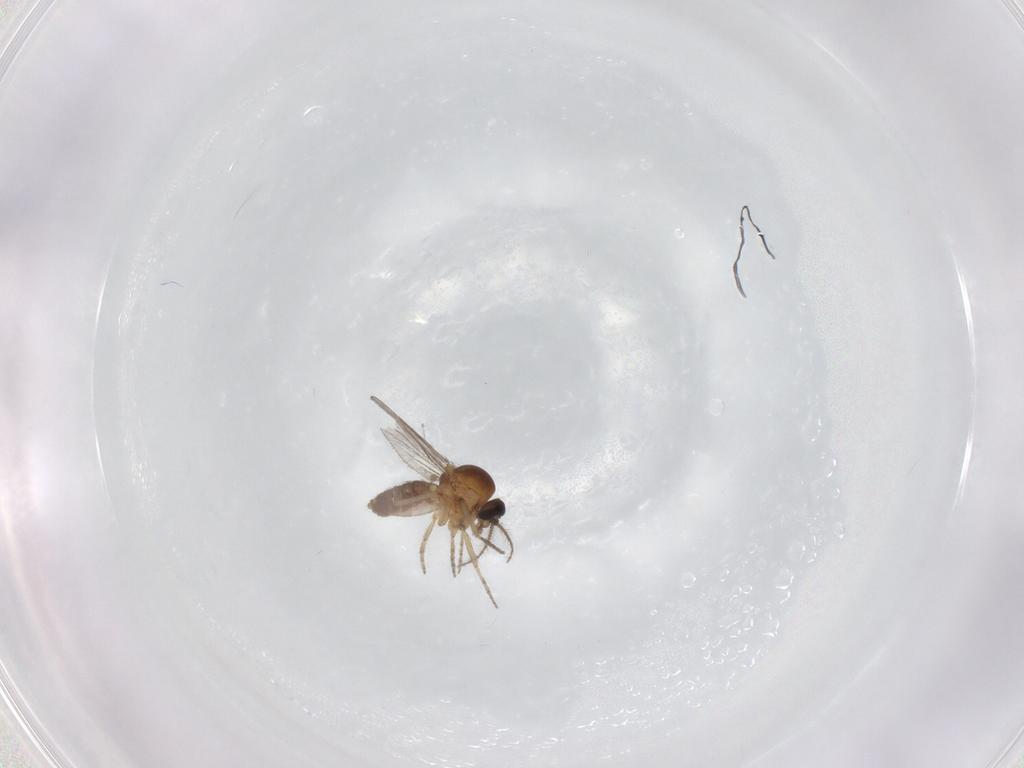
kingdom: Animalia
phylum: Arthropoda
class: Insecta
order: Diptera
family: Ceratopogonidae
